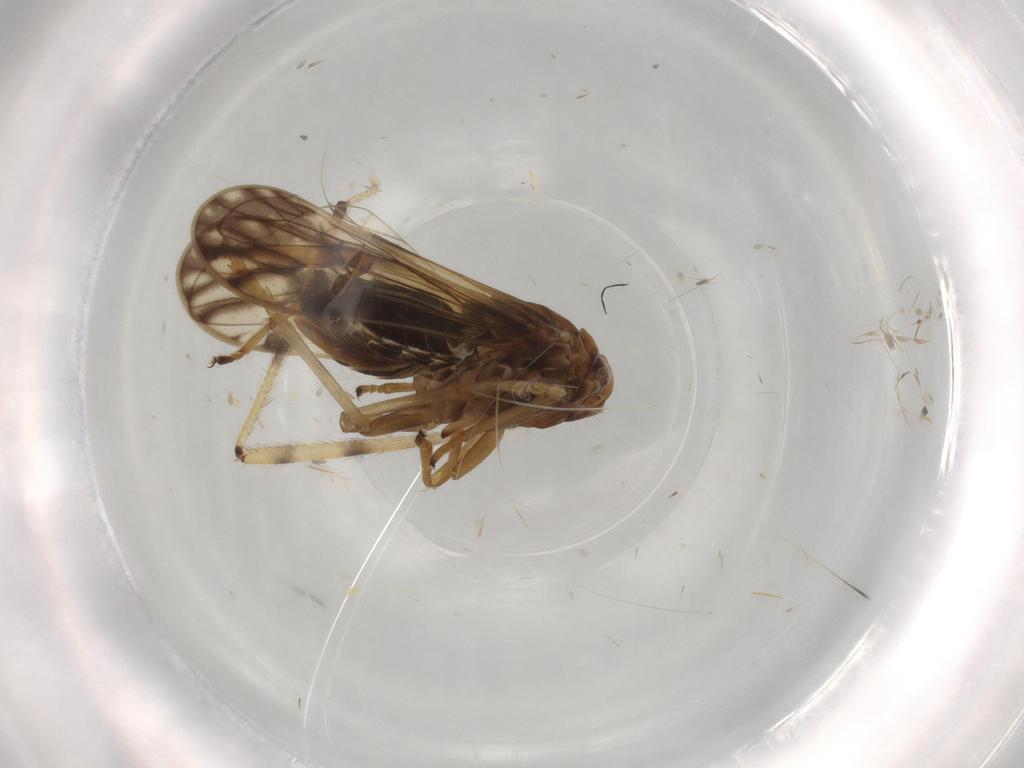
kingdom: Animalia
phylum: Arthropoda
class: Insecta
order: Hemiptera
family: Delphacidae
